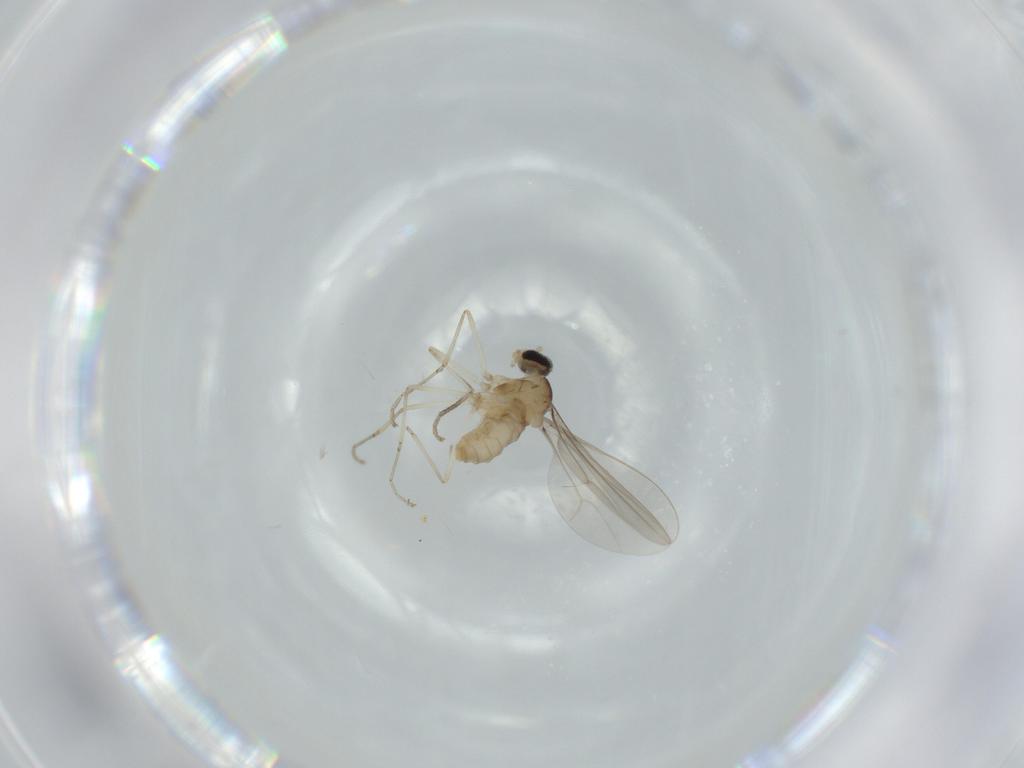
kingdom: Animalia
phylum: Arthropoda
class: Insecta
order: Diptera
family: Cecidomyiidae
